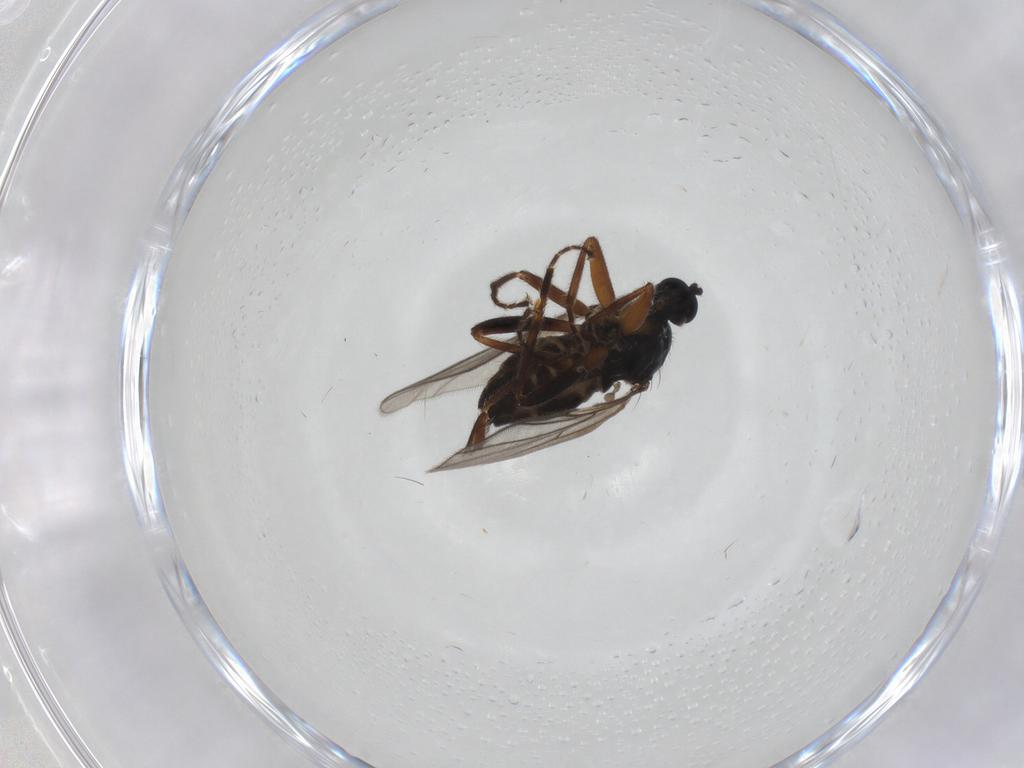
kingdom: Animalia
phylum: Arthropoda
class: Insecta
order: Diptera
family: Hybotidae
